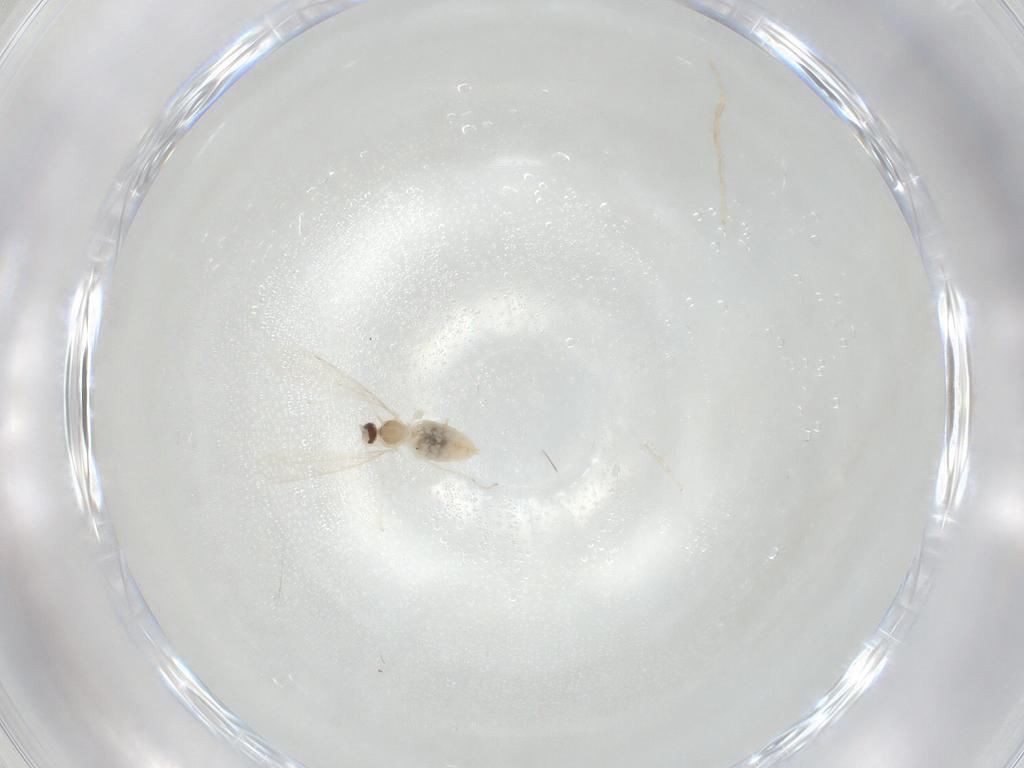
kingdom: Animalia
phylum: Arthropoda
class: Insecta
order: Diptera
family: Cecidomyiidae
